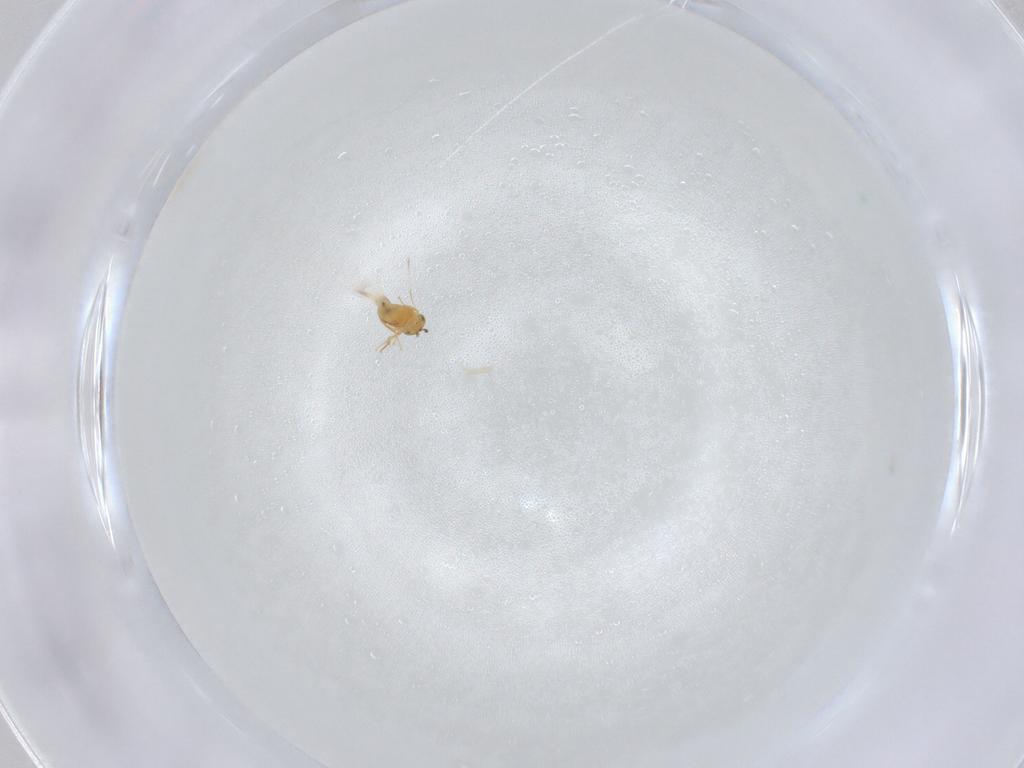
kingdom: Animalia
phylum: Arthropoda
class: Insecta
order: Hymenoptera
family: Signiphoridae
